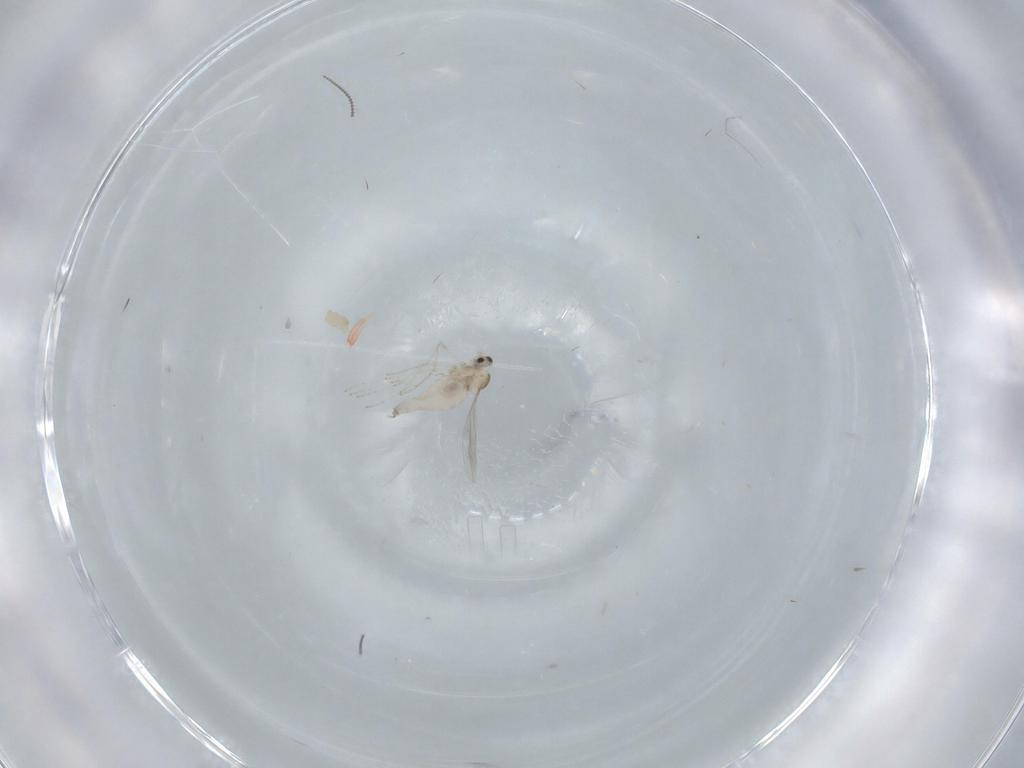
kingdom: Animalia
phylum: Arthropoda
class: Insecta
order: Diptera
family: Cecidomyiidae
